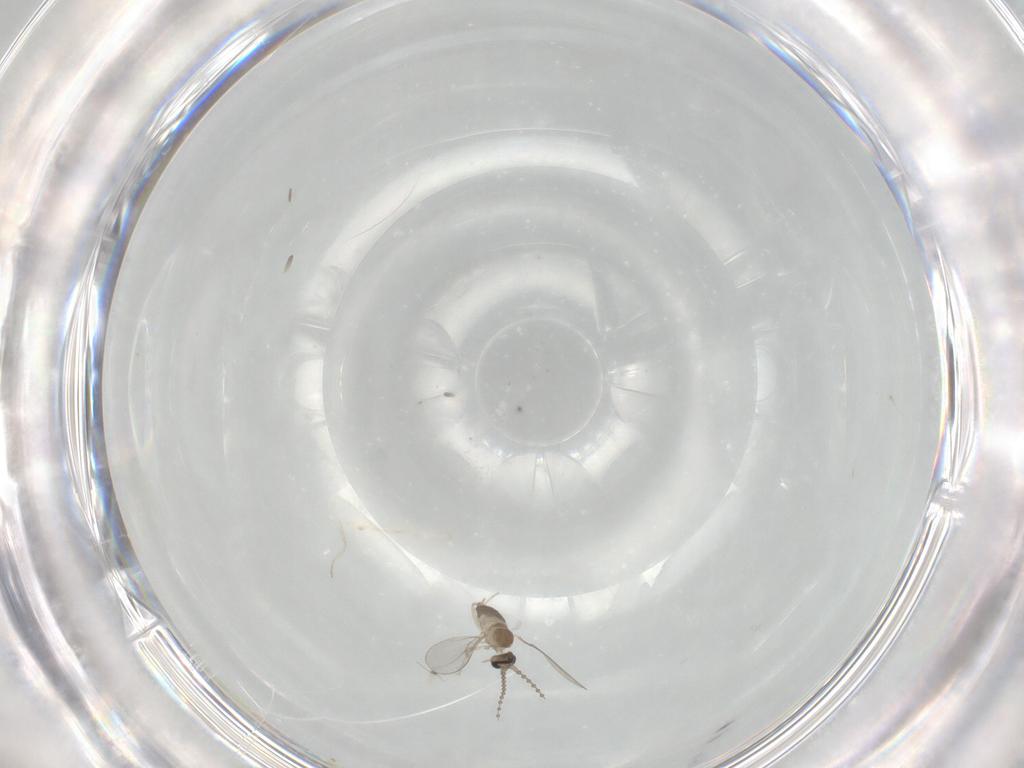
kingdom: Animalia
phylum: Arthropoda
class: Insecta
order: Diptera
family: Cecidomyiidae
